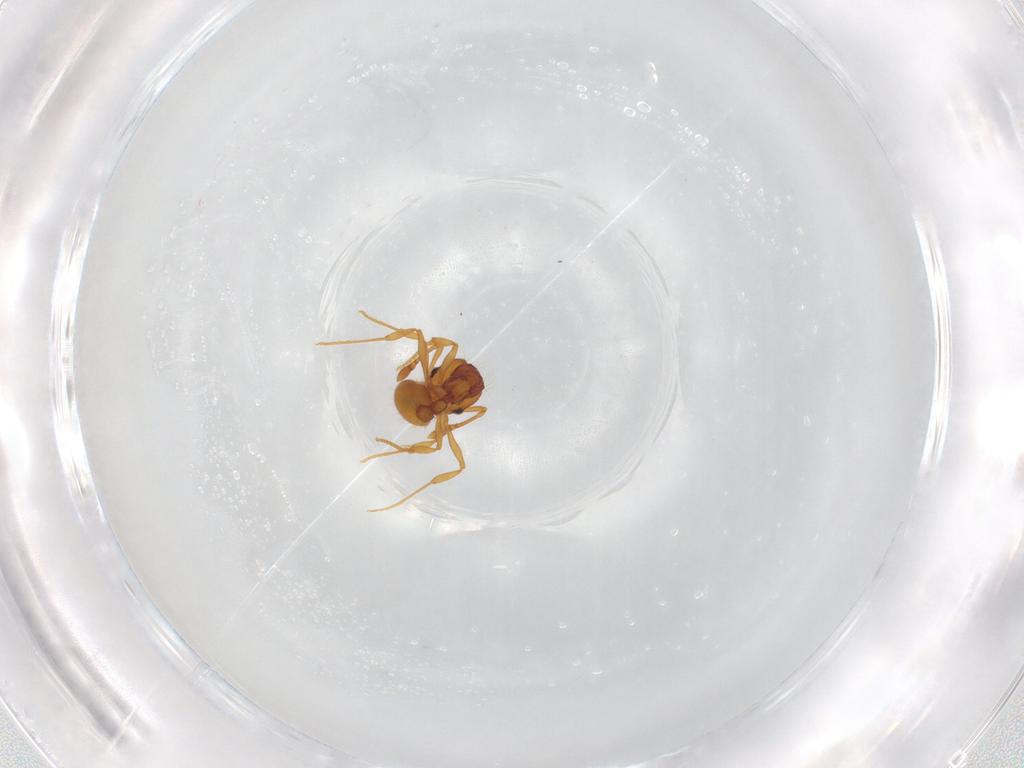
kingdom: Animalia
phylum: Arthropoda
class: Insecta
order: Hymenoptera
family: Formicidae
